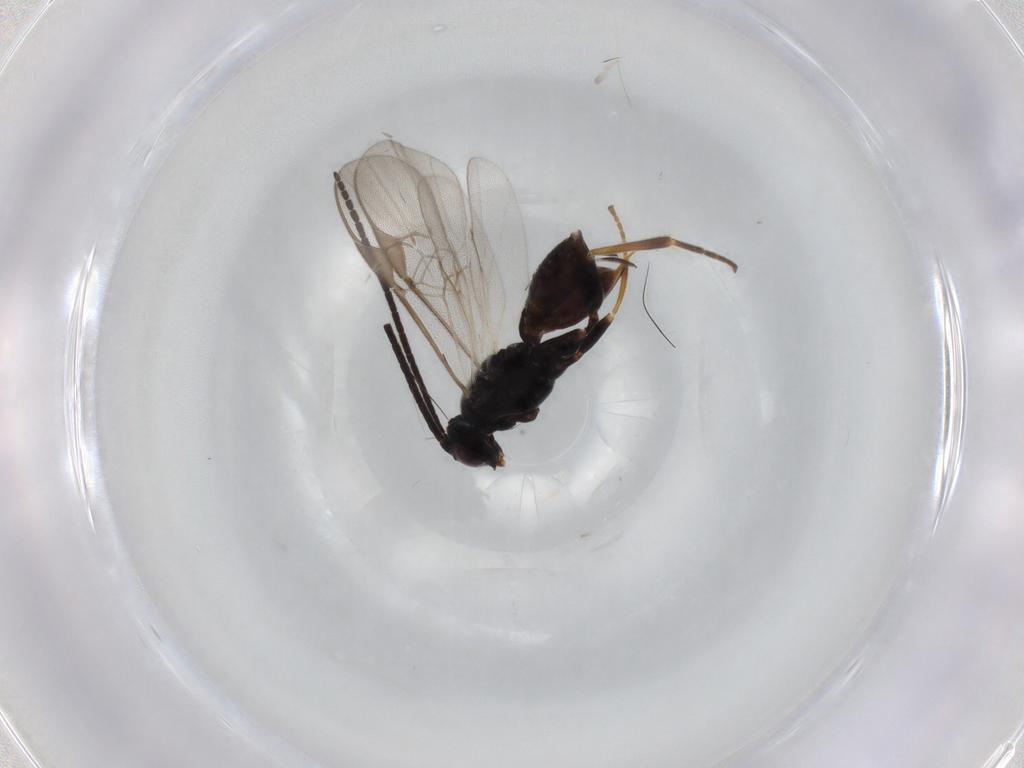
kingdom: Animalia
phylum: Arthropoda
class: Insecta
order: Hymenoptera
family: Braconidae
